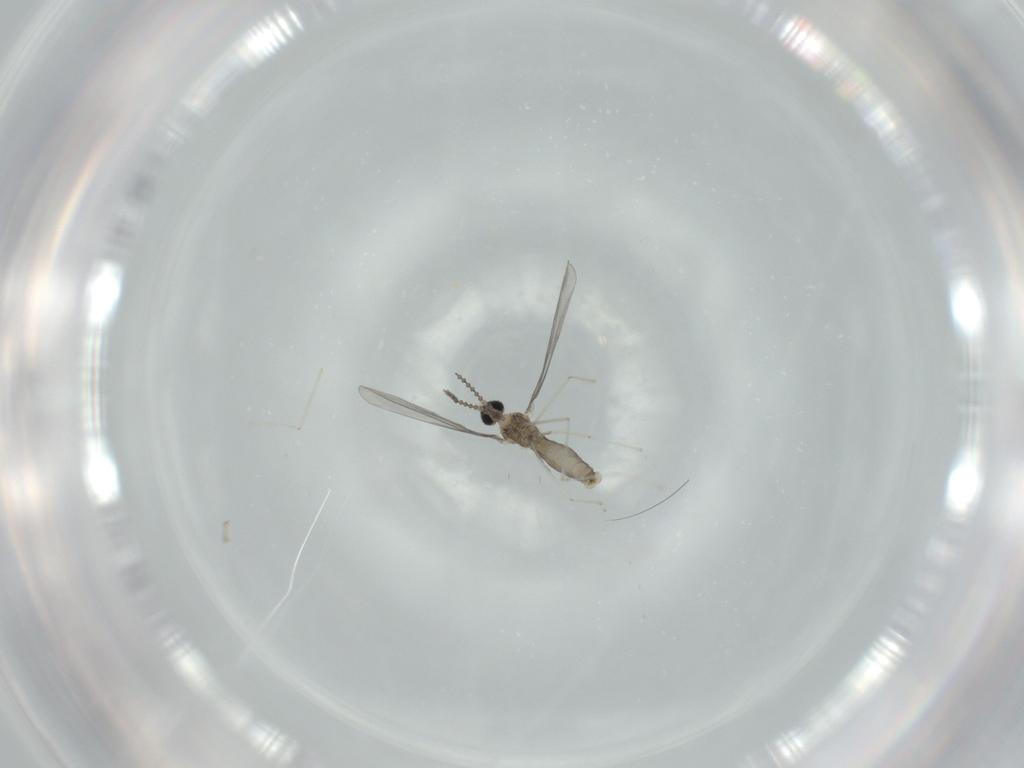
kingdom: Animalia
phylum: Arthropoda
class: Insecta
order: Diptera
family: Cecidomyiidae
